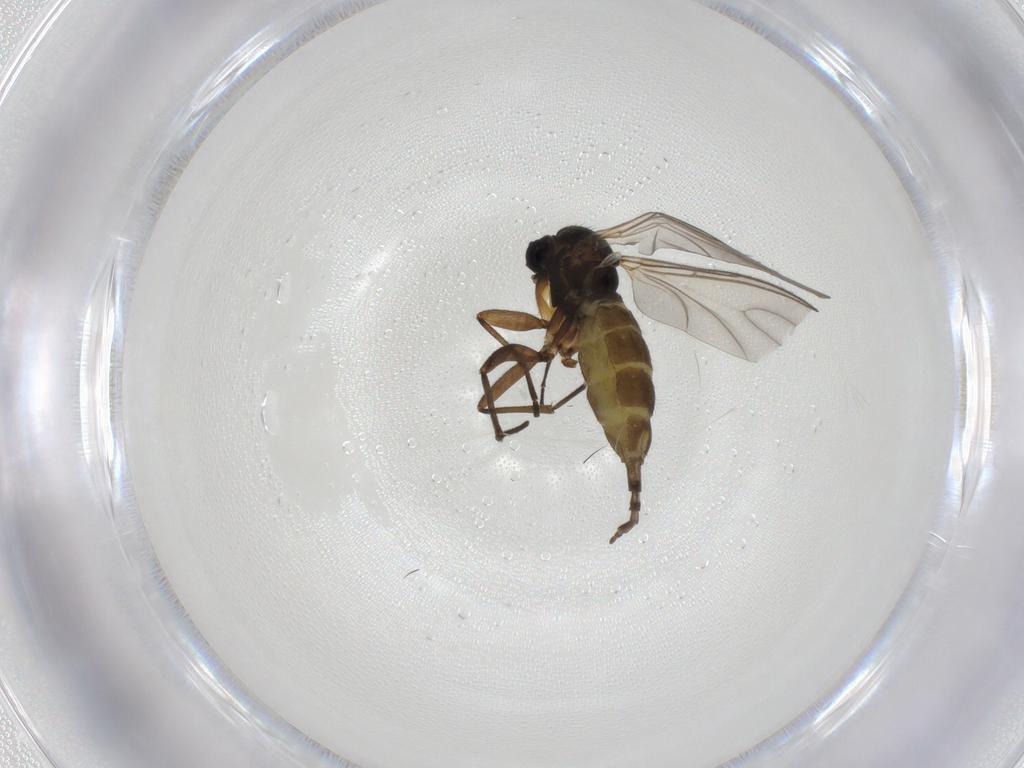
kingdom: Animalia
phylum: Arthropoda
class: Insecta
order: Diptera
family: Sciaridae
